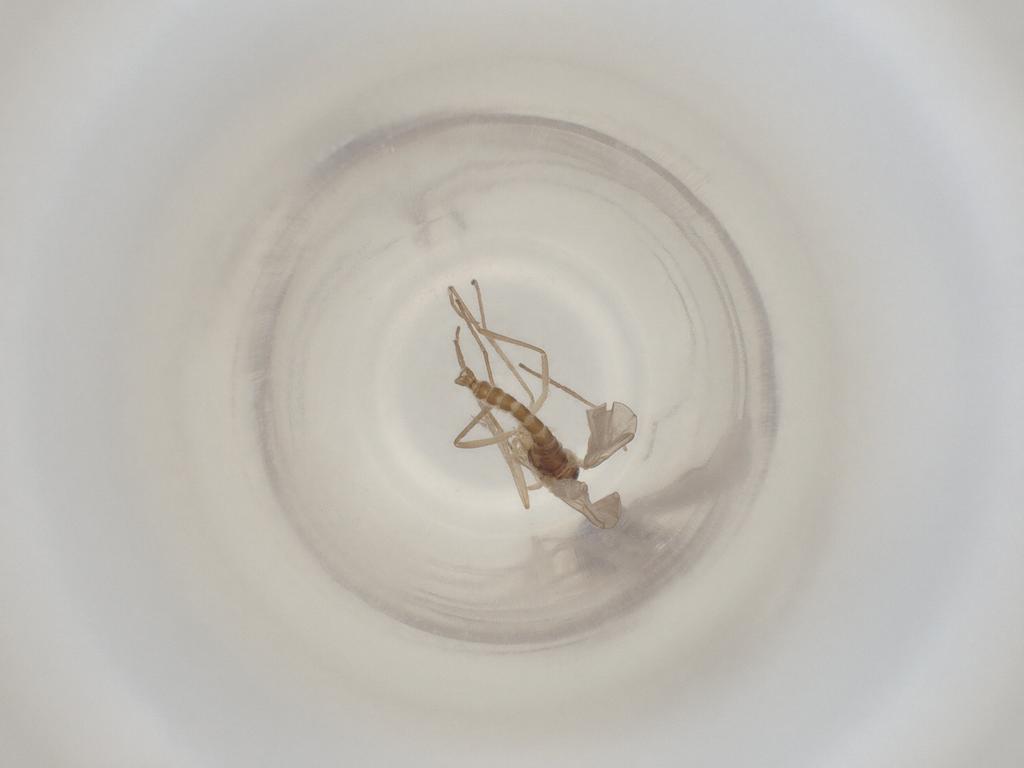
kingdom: Animalia
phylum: Arthropoda
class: Insecta
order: Diptera
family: Cecidomyiidae
